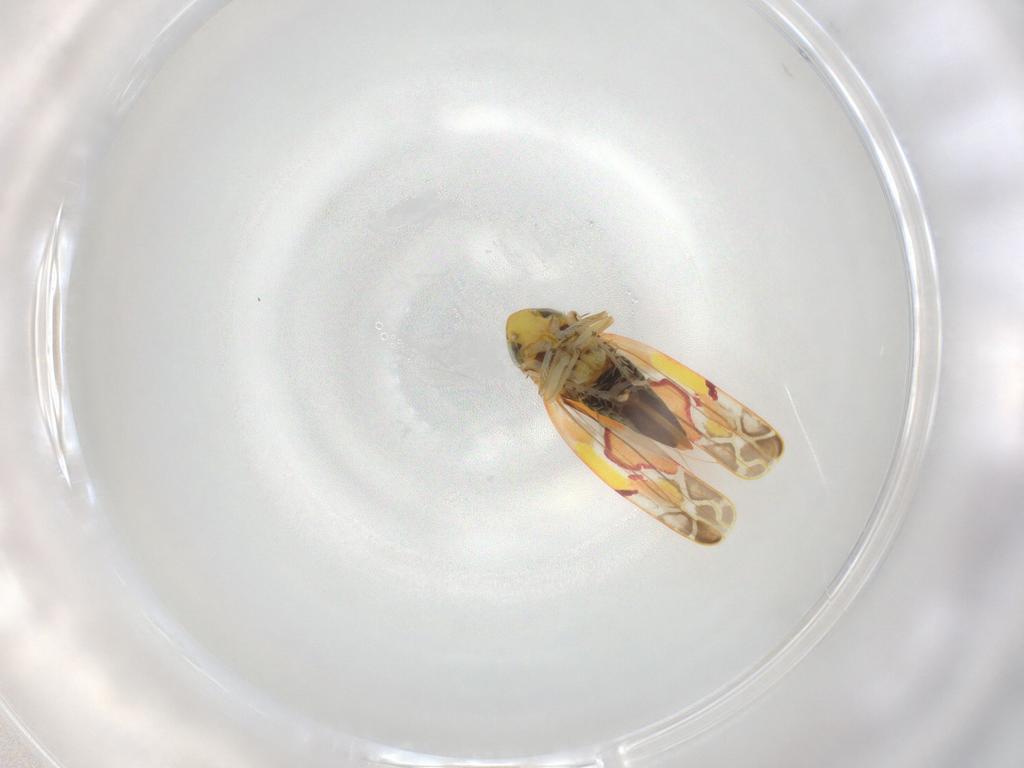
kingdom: Animalia
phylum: Arthropoda
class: Insecta
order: Hemiptera
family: Cicadellidae
